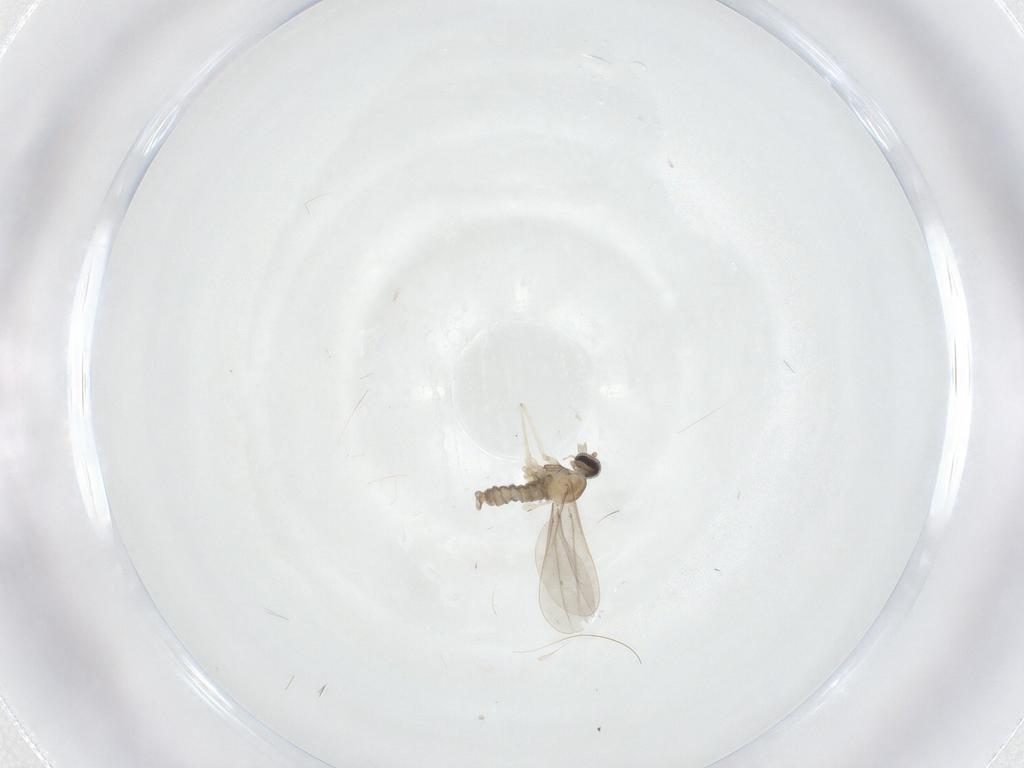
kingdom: Animalia
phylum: Arthropoda
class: Insecta
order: Diptera
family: Cecidomyiidae
